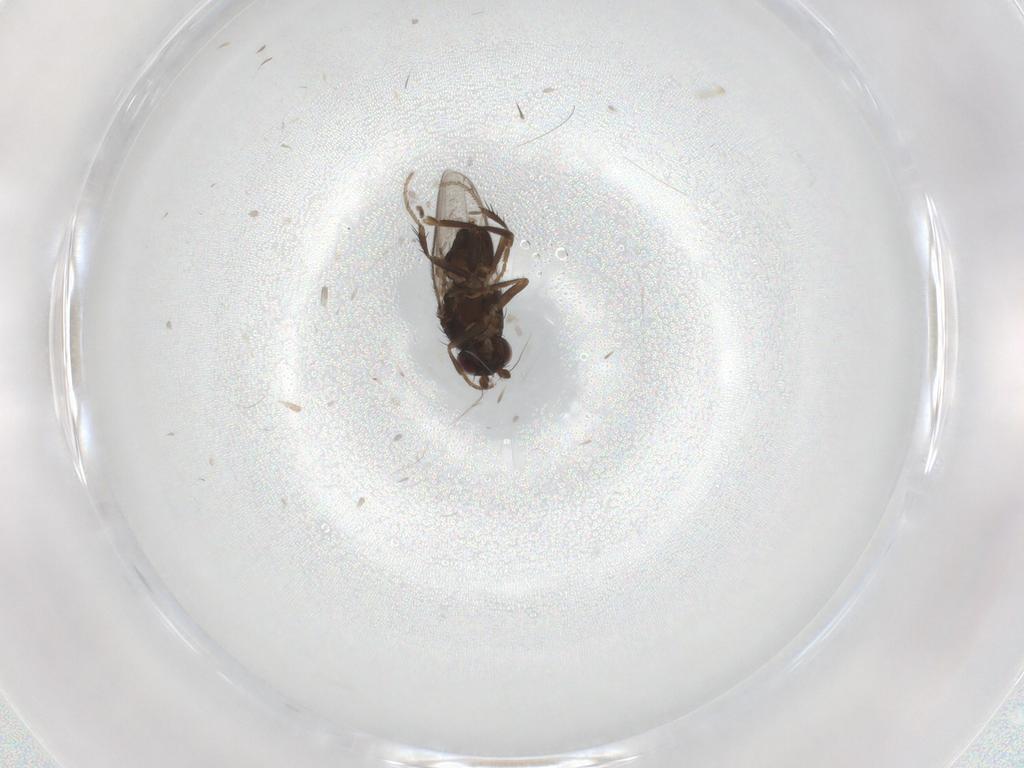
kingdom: Animalia
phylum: Arthropoda
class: Insecta
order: Diptera
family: Sphaeroceridae
